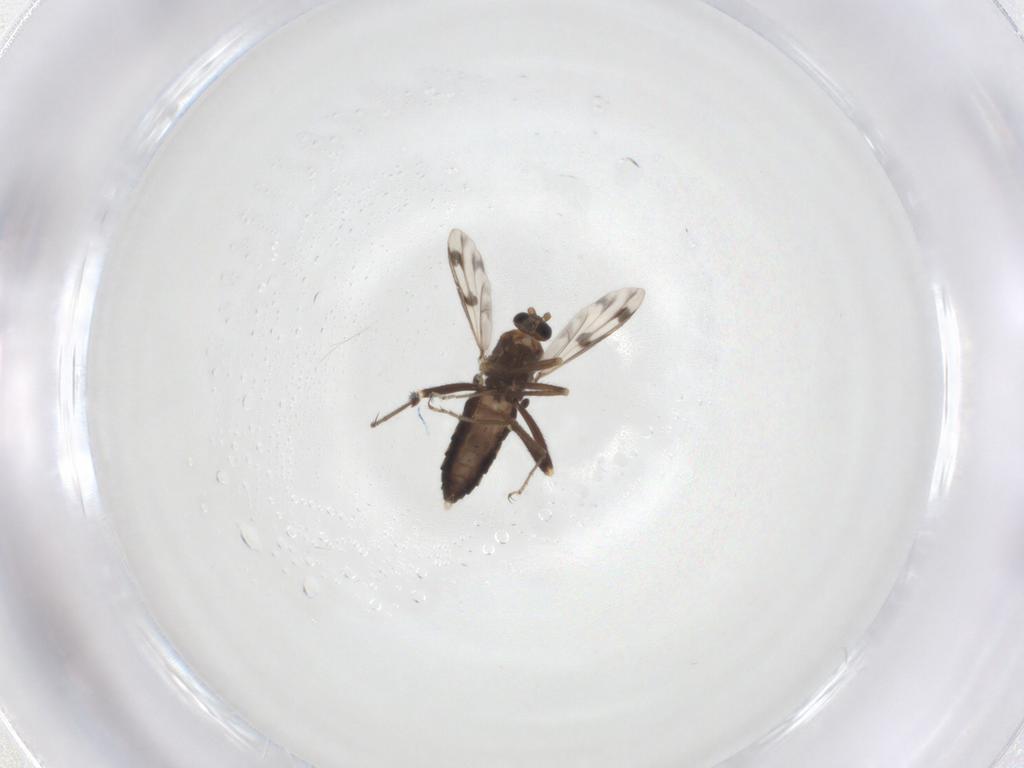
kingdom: Animalia
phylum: Arthropoda
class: Insecta
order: Diptera
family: Ceratopogonidae
